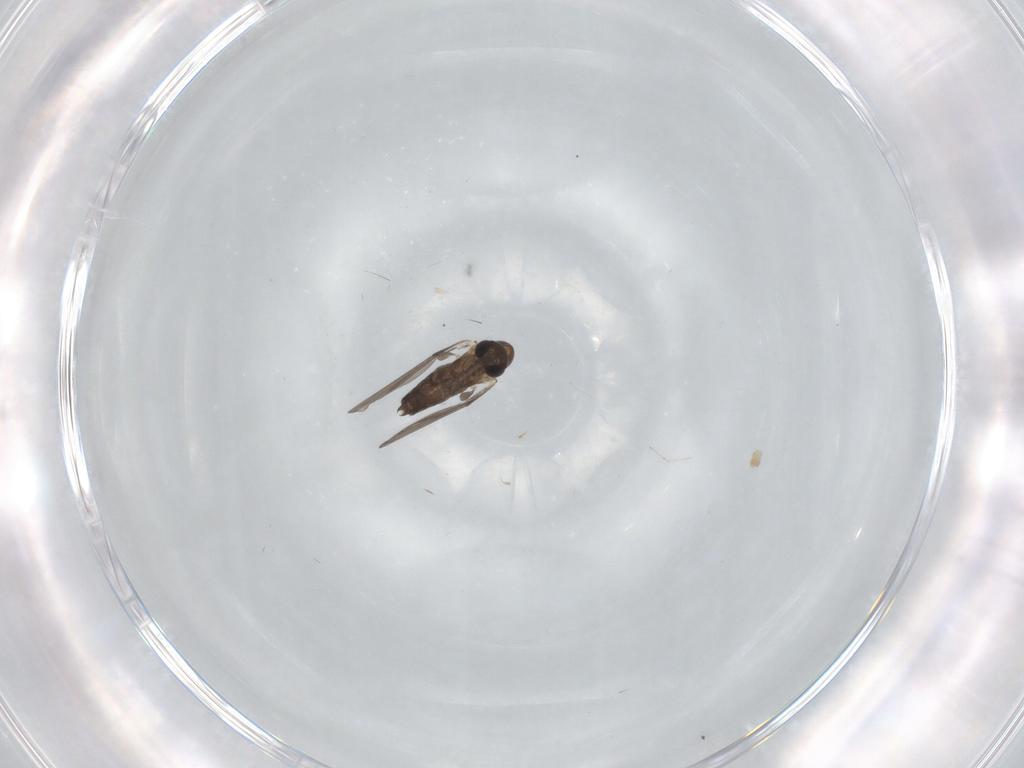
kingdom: Animalia
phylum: Arthropoda
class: Insecta
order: Diptera
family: Cecidomyiidae
